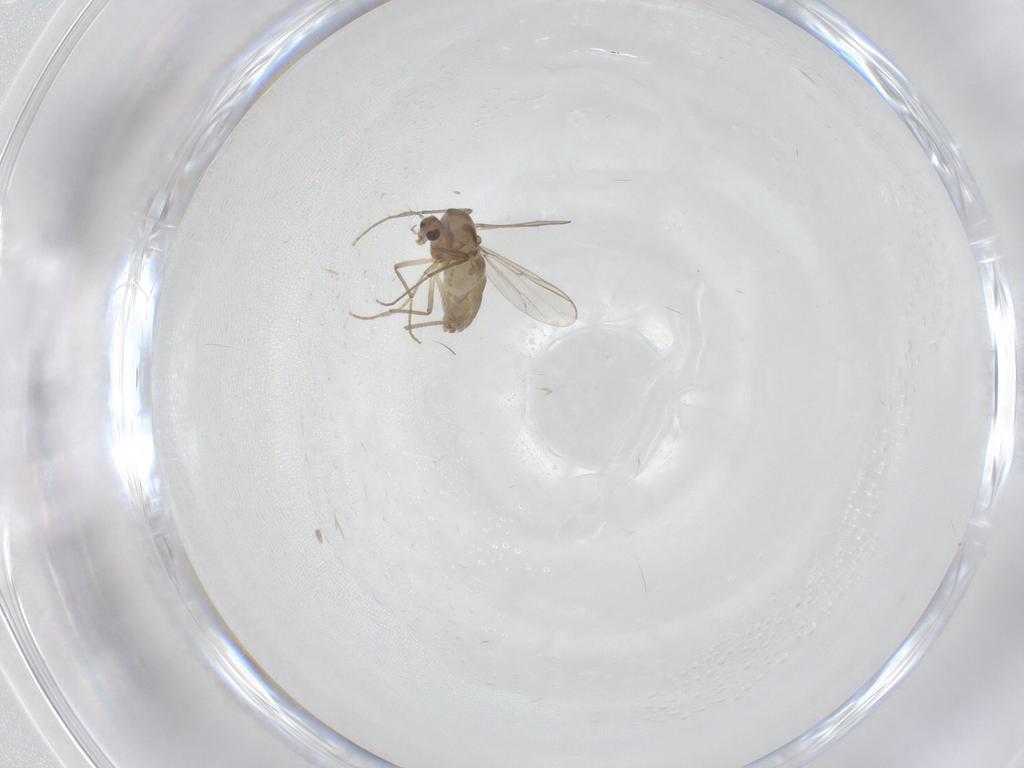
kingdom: Animalia
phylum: Arthropoda
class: Insecta
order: Diptera
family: Chironomidae
